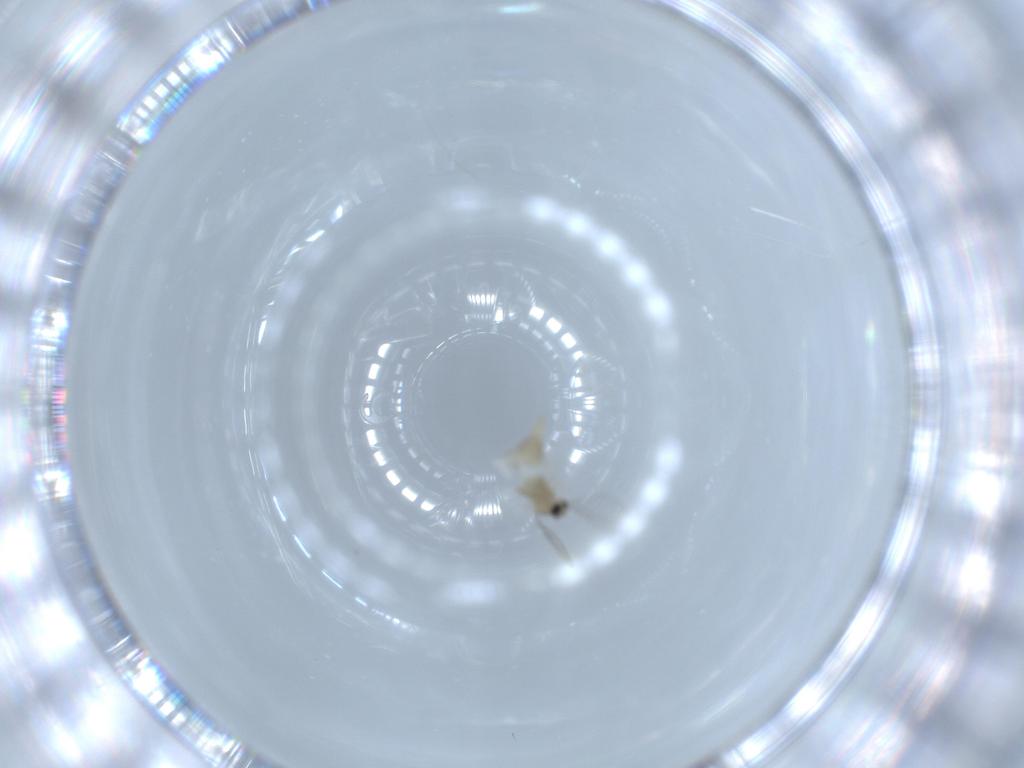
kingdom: Animalia
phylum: Arthropoda
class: Insecta
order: Diptera
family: Cecidomyiidae
